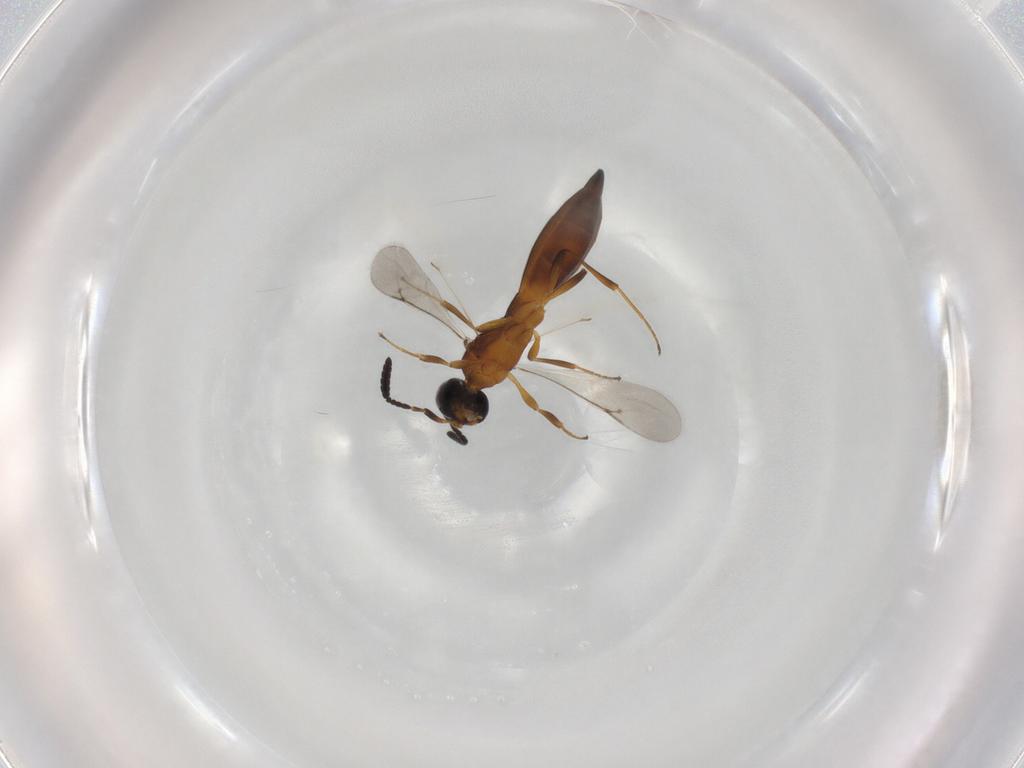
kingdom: Animalia
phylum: Arthropoda
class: Insecta
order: Hymenoptera
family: Scelionidae
